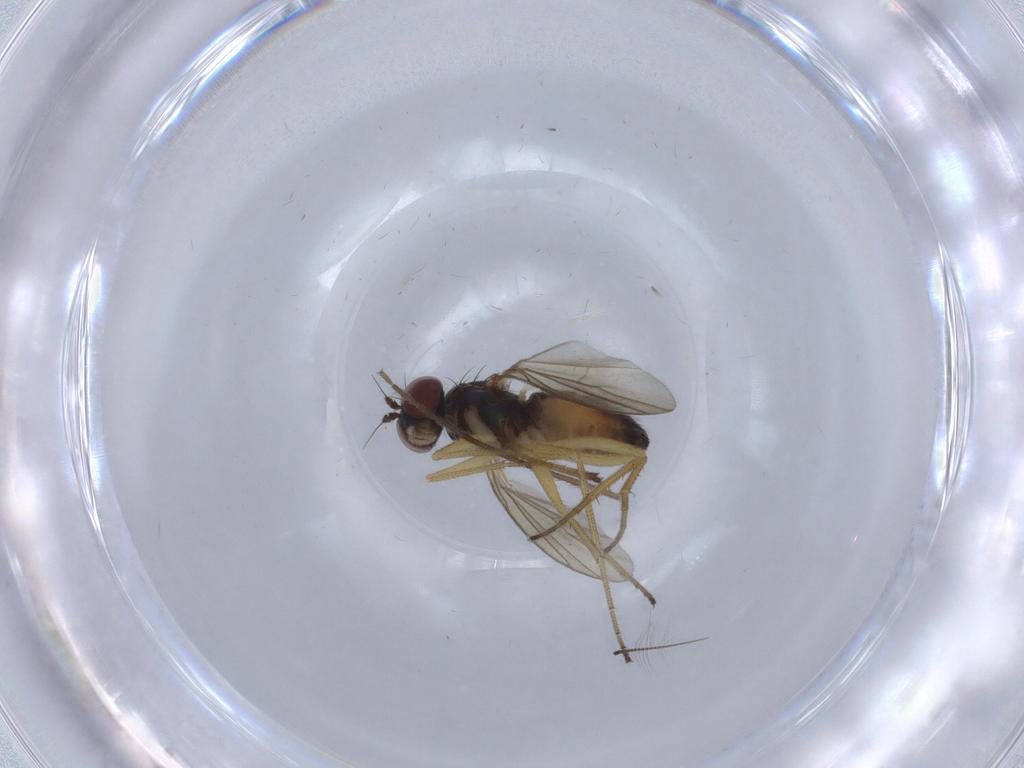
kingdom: Animalia
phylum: Arthropoda
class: Insecta
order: Diptera
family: Dolichopodidae
